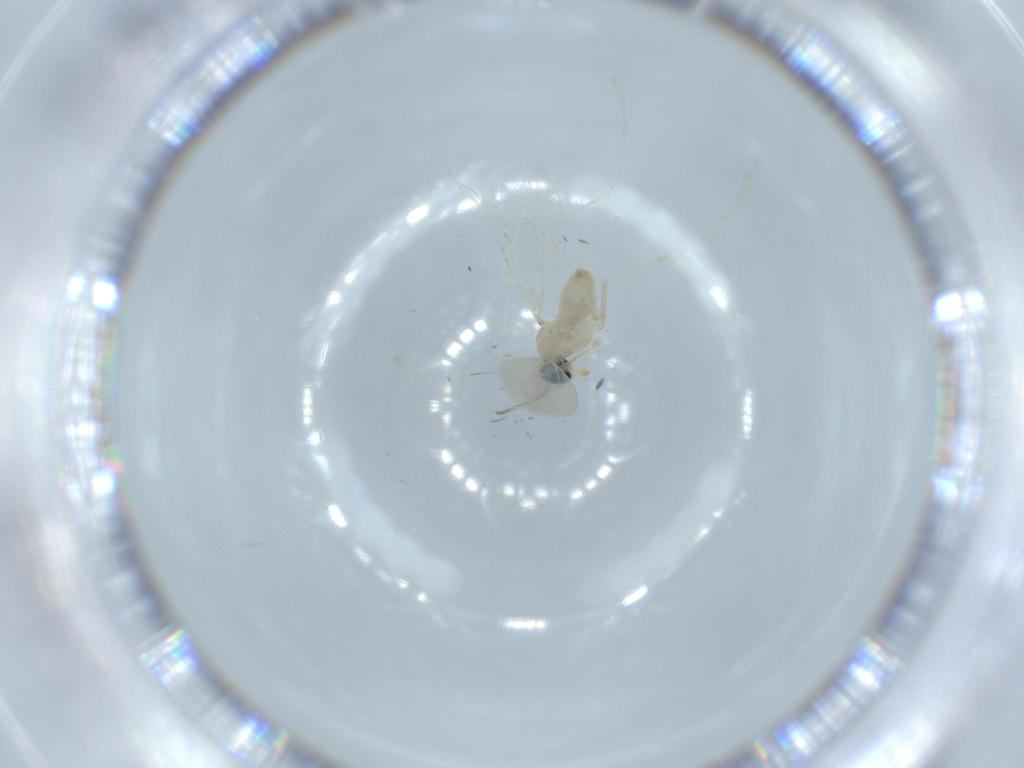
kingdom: Animalia
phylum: Arthropoda
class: Insecta
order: Diptera
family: Cecidomyiidae
